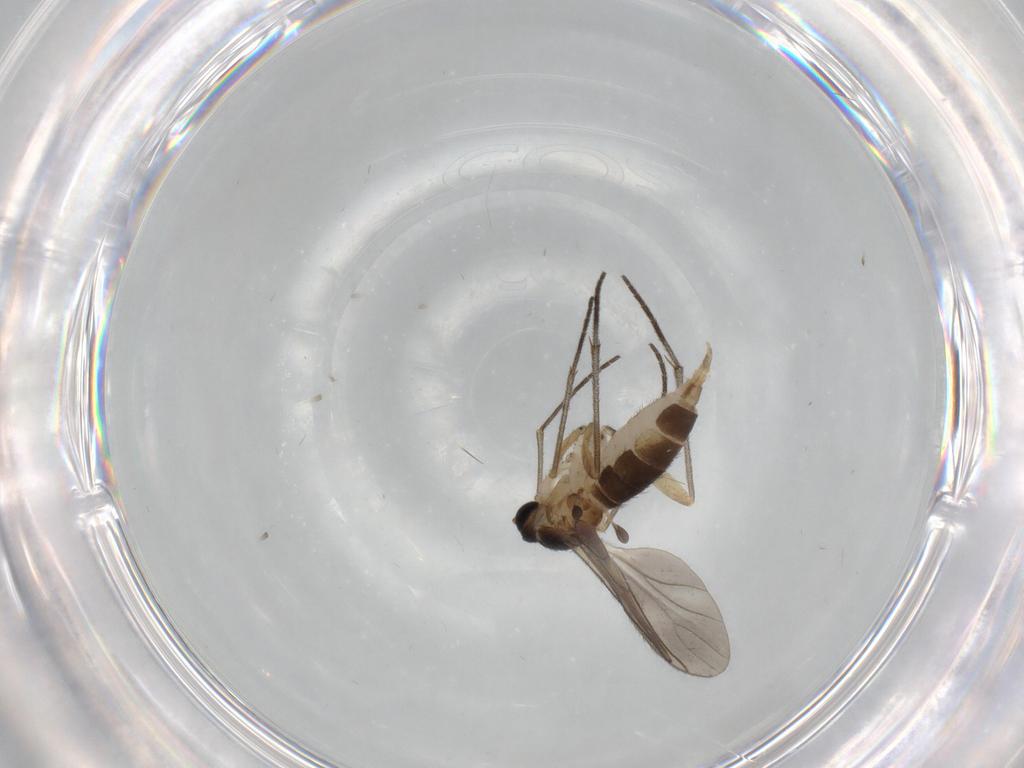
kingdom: Animalia
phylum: Arthropoda
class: Insecta
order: Diptera
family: Sciaridae
